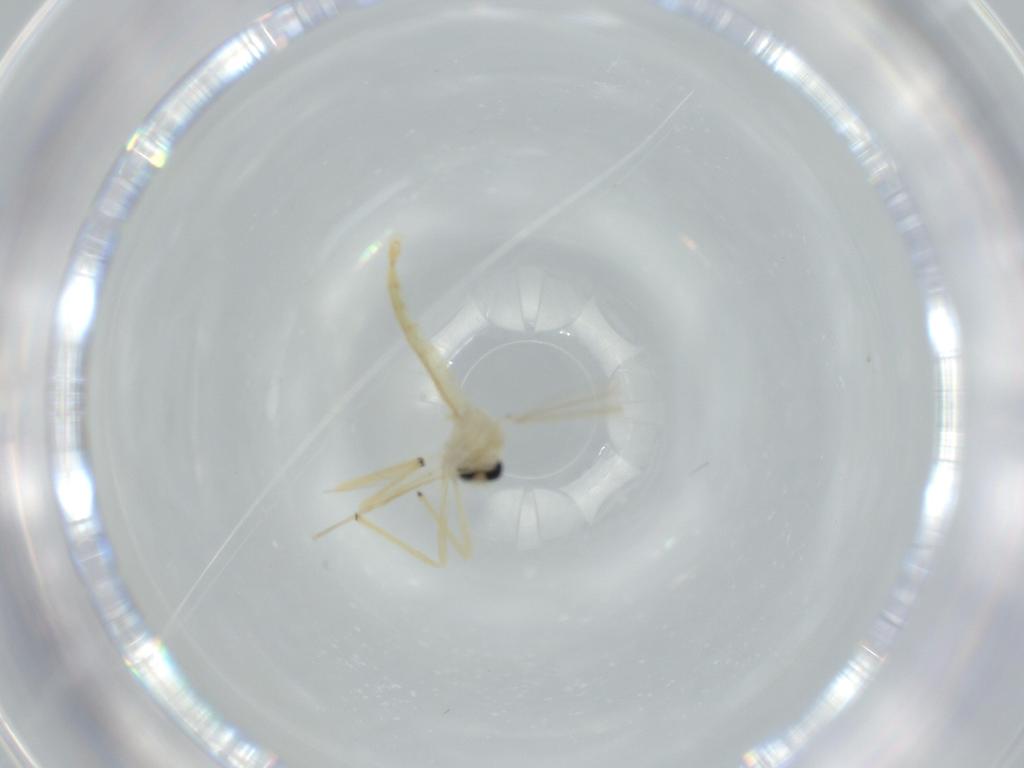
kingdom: Animalia
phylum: Arthropoda
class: Insecta
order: Diptera
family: Chironomidae
